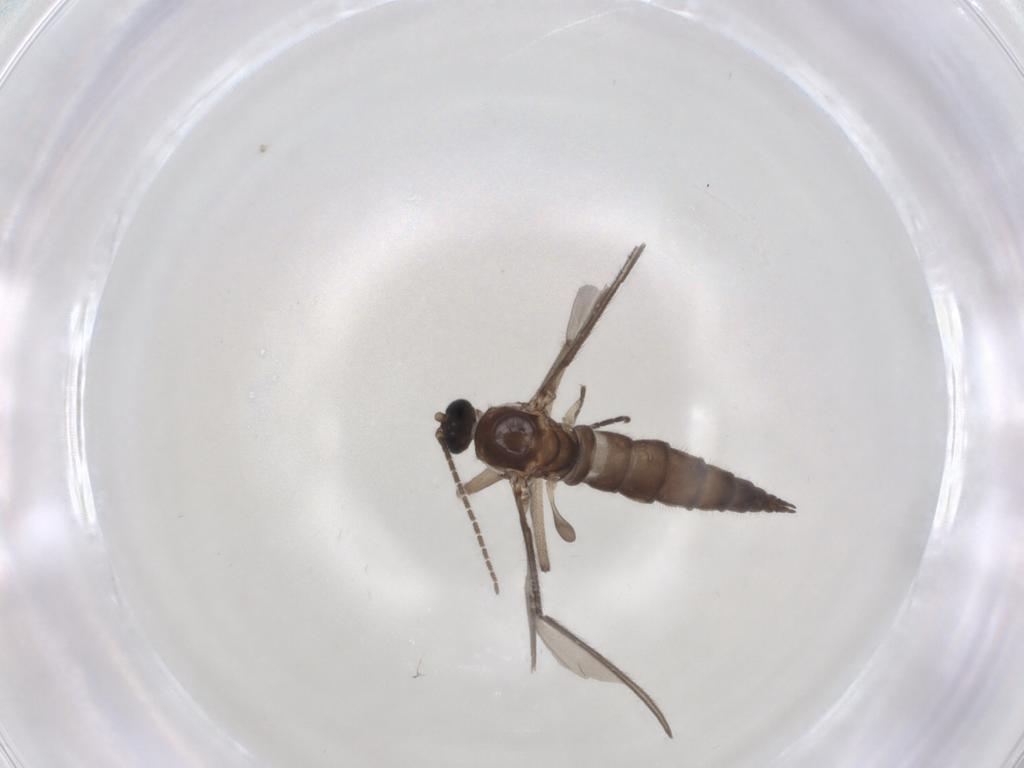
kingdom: Animalia
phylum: Arthropoda
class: Insecta
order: Diptera
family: Sciaridae
